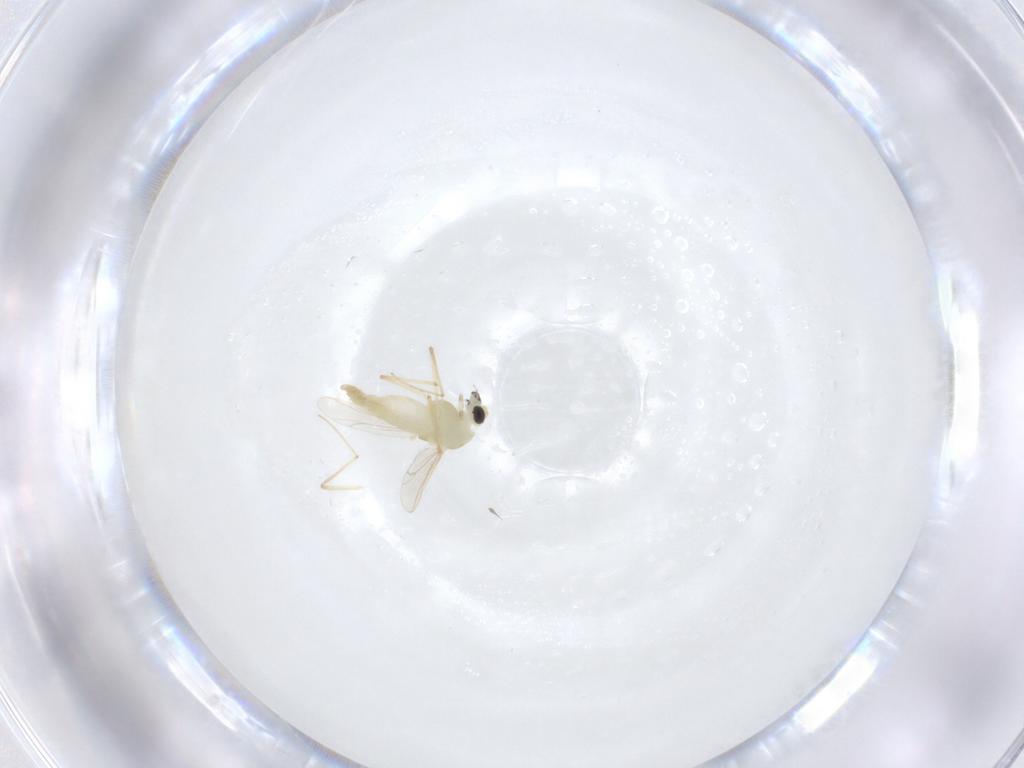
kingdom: Animalia
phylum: Arthropoda
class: Insecta
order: Diptera
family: Chironomidae
